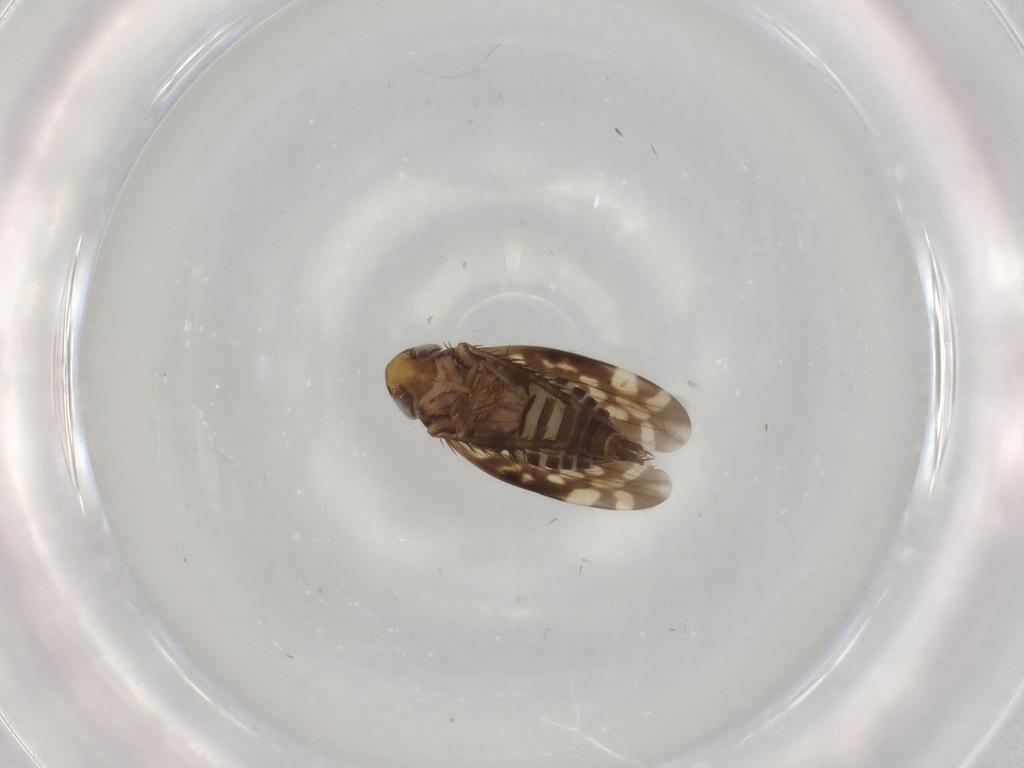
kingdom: Animalia
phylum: Arthropoda
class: Insecta
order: Hemiptera
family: Cicadellidae
